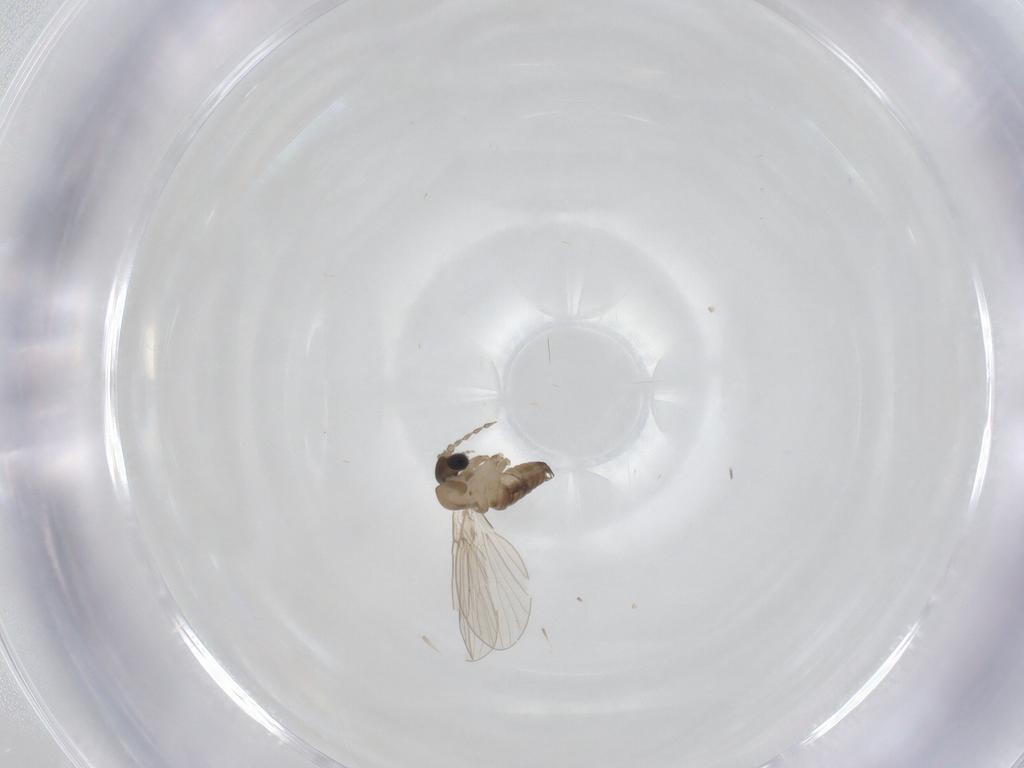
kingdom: Animalia
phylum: Arthropoda
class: Insecta
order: Diptera
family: Psychodidae
